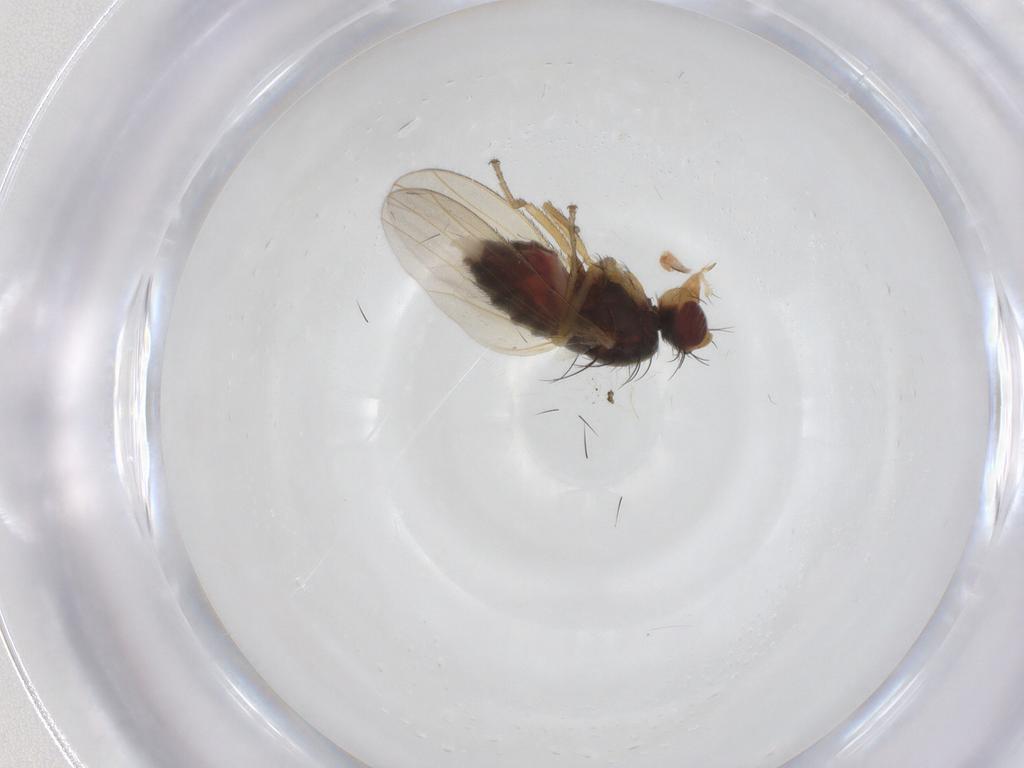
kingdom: Animalia
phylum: Arthropoda
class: Insecta
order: Diptera
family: Heleomyzidae
